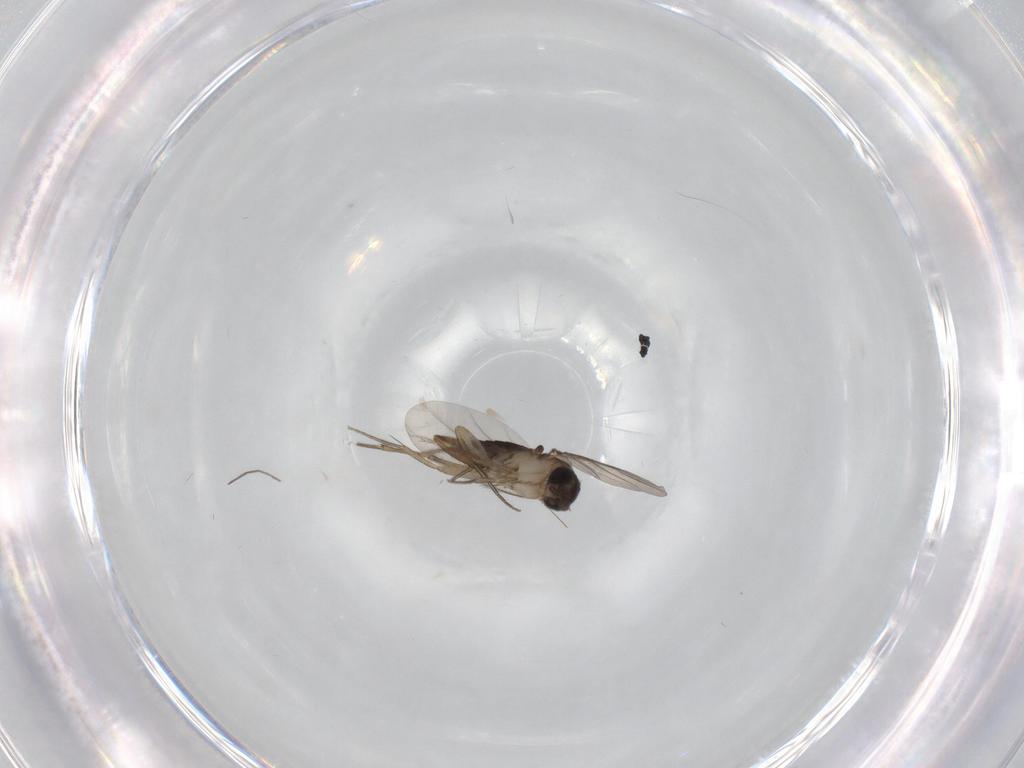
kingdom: Animalia
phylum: Arthropoda
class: Insecta
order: Diptera
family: Chironomidae
